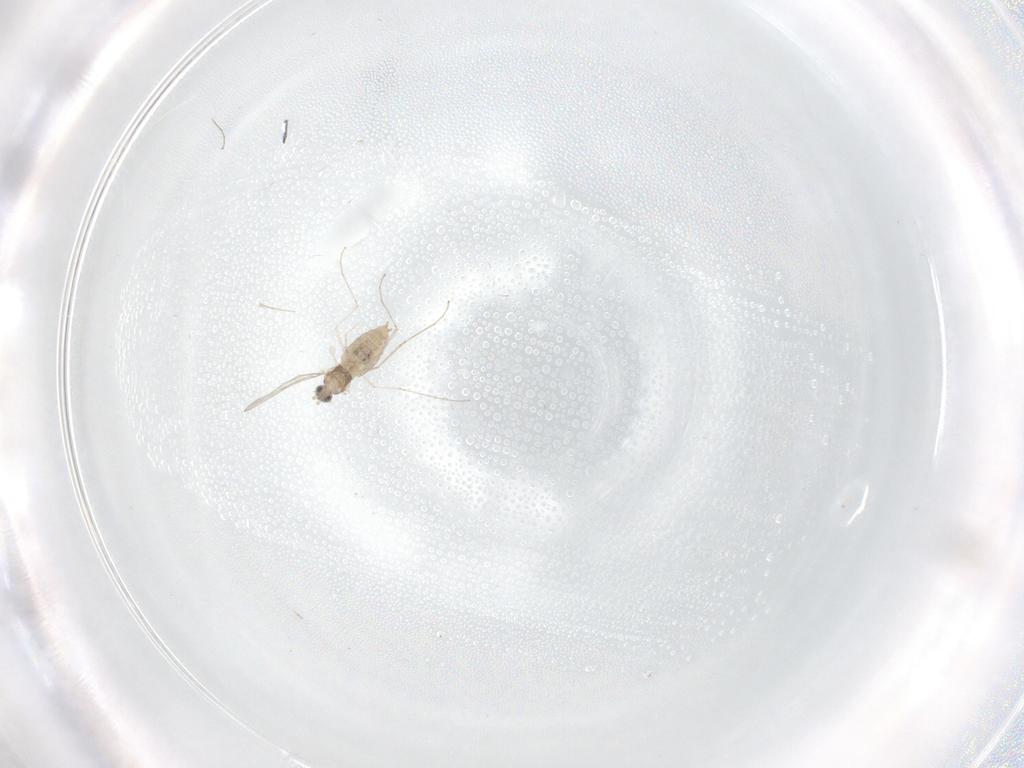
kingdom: Animalia
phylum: Arthropoda
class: Insecta
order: Diptera
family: Cecidomyiidae
